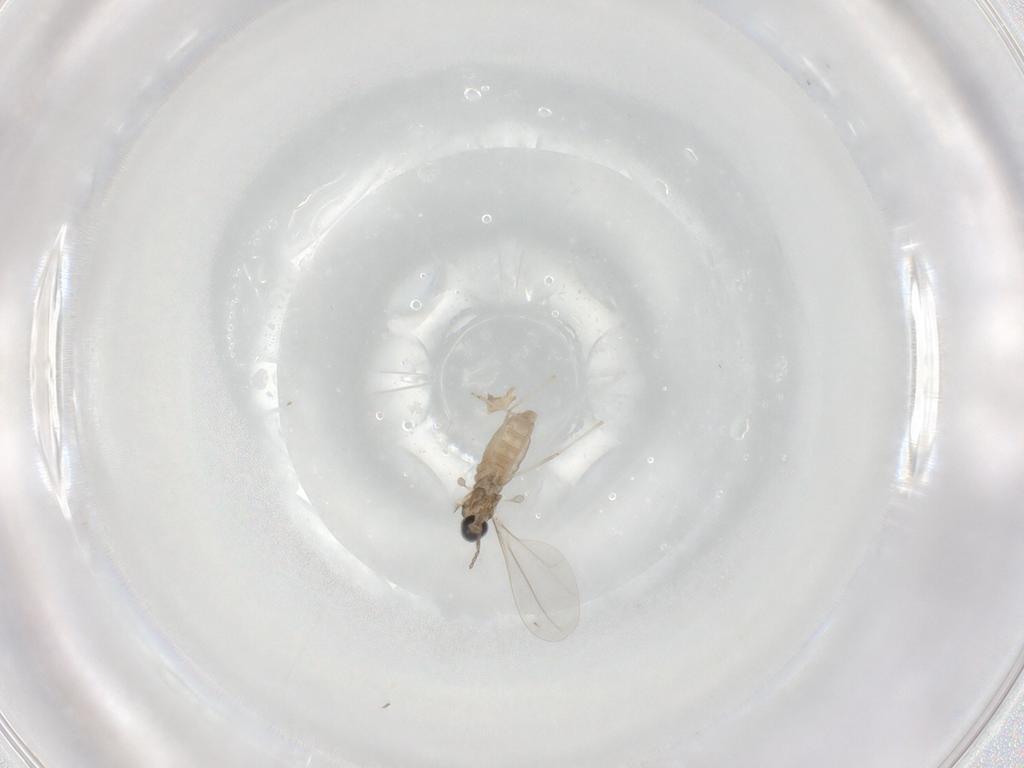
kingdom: Animalia
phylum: Arthropoda
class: Insecta
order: Diptera
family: Cecidomyiidae
